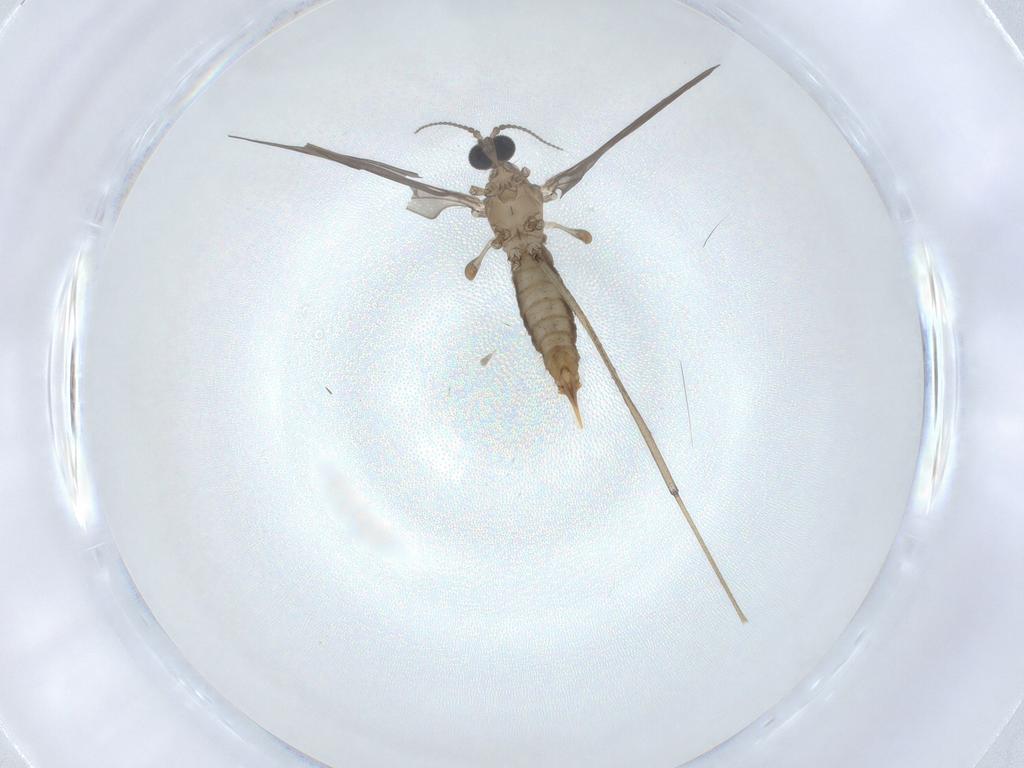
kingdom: Animalia
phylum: Arthropoda
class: Insecta
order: Diptera
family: Limoniidae
